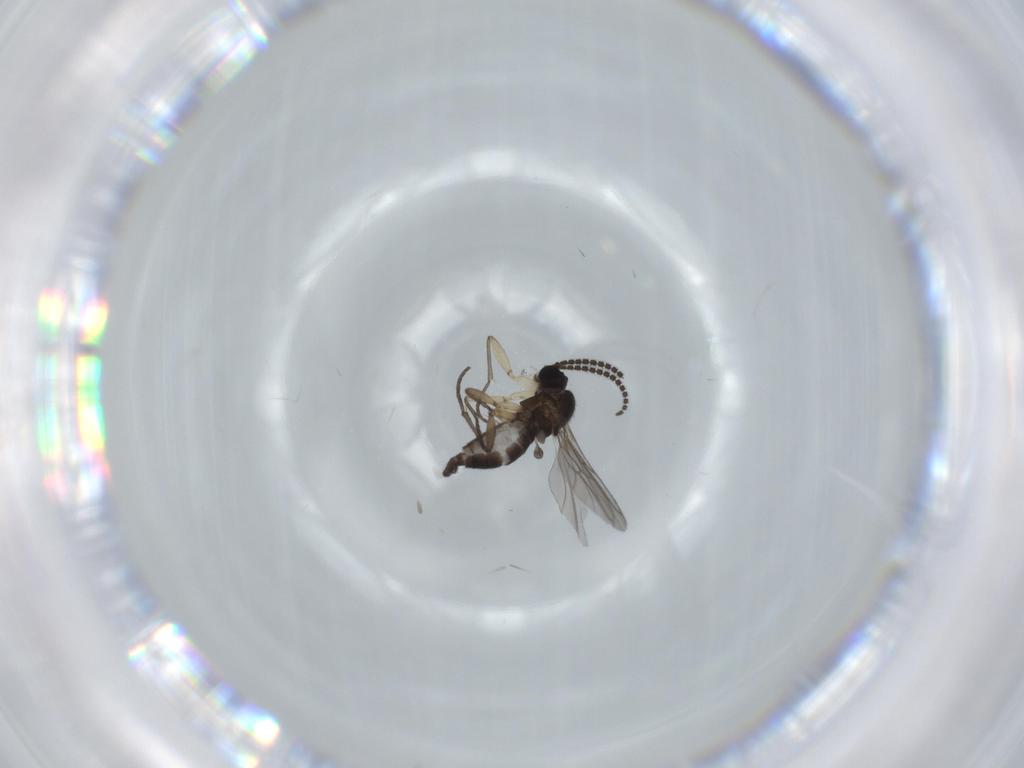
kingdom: Animalia
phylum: Arthropoda
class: Insecta
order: Diptera
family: Sciaridae
